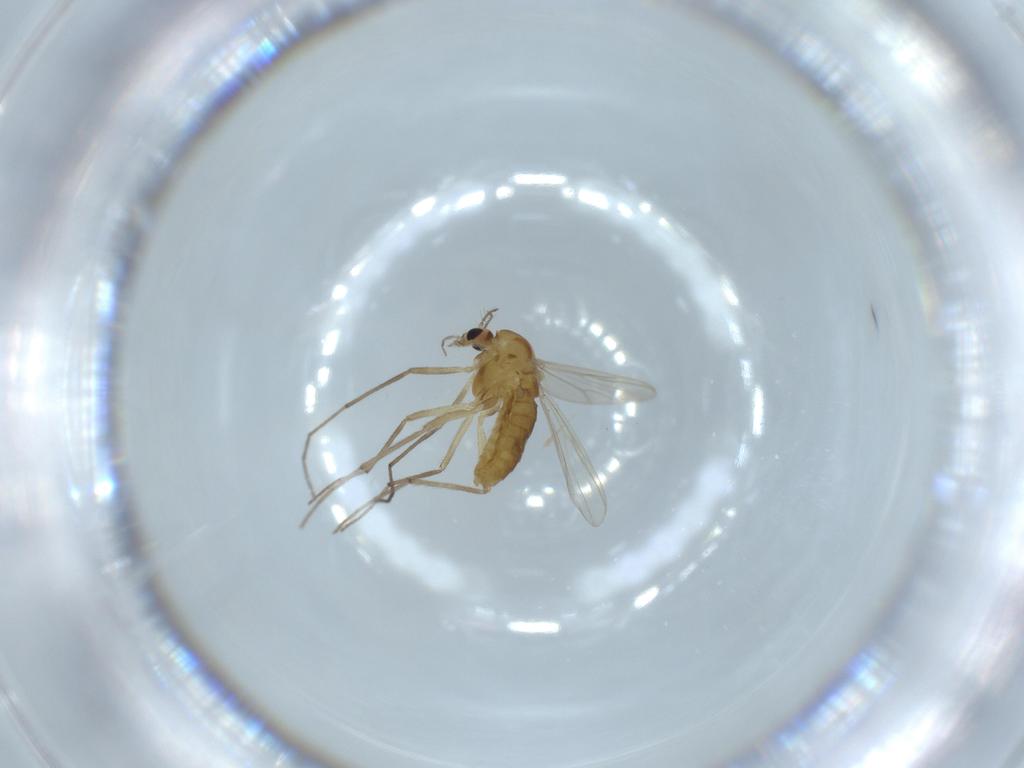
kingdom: Animalia
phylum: Arthropoda
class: Insecta
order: Diptera
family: Chironomidae
